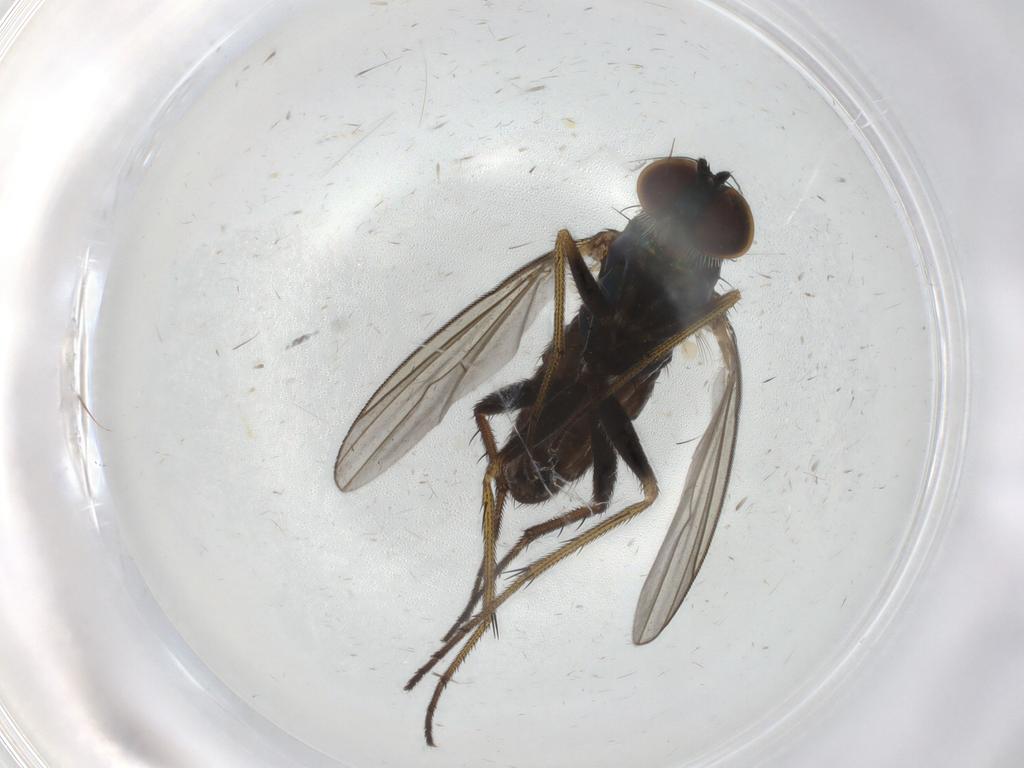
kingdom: Animalia
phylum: Arthropoda
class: Insecta
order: Diptera
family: Dolichopodidae
